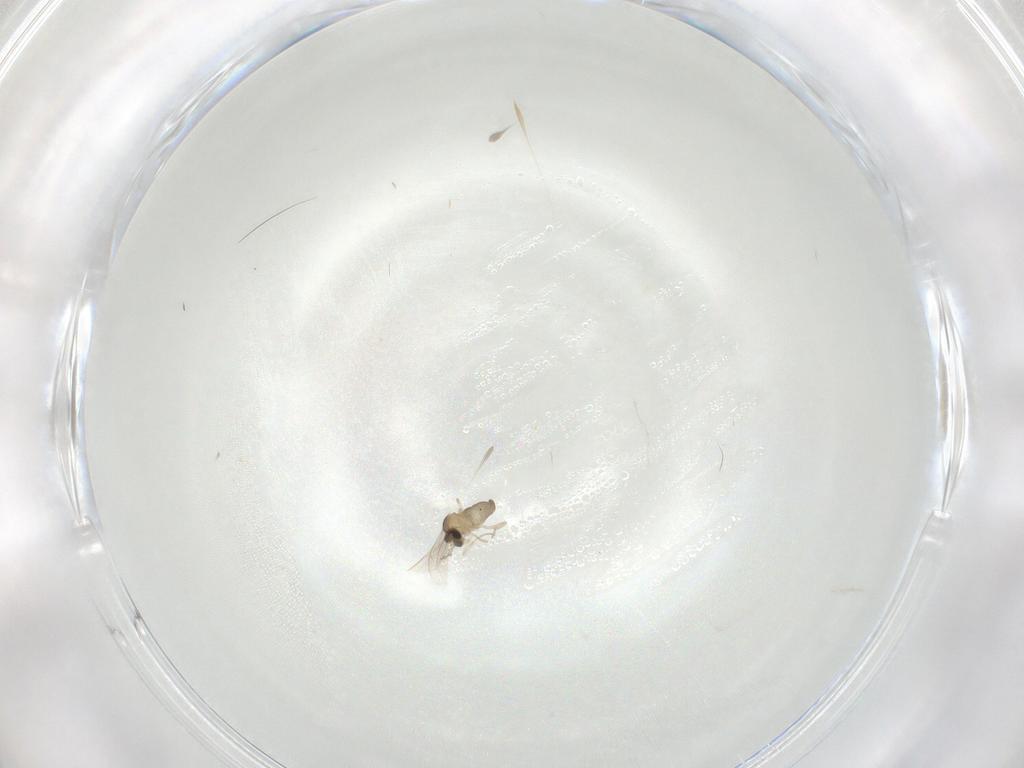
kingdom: Animalia
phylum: Arthropoda
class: Insecta
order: Diptera
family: Cecidomyiidae
